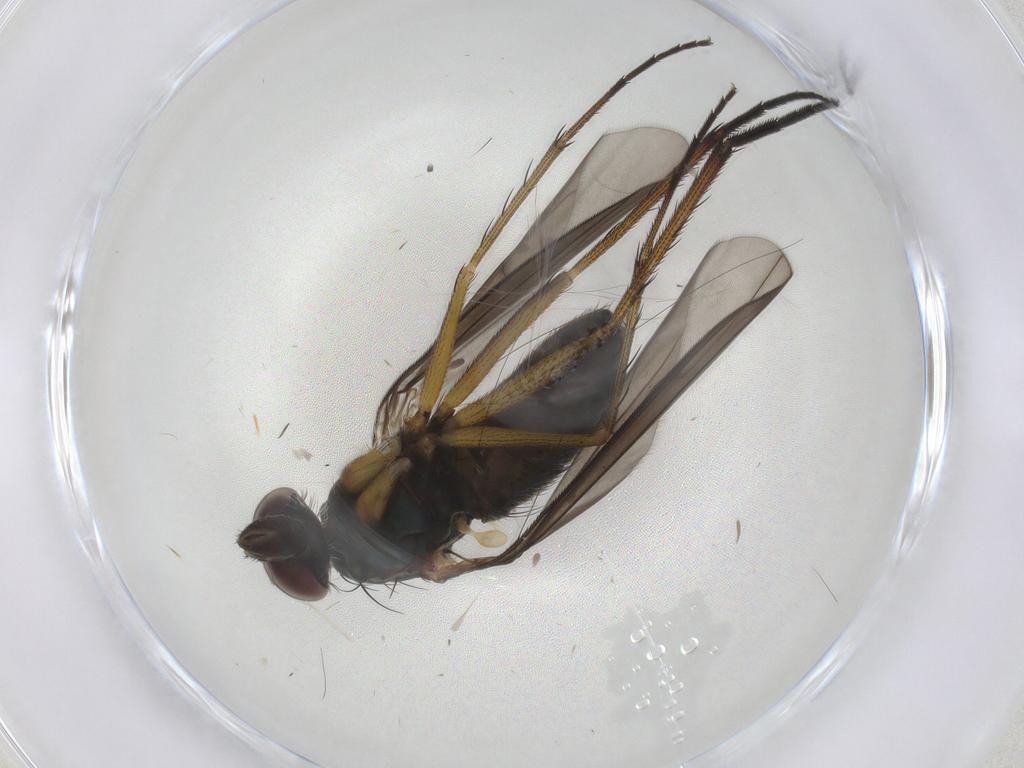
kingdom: Animalia
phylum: Arthropoda
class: Insecta
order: Diptera
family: Dolichopodidae
